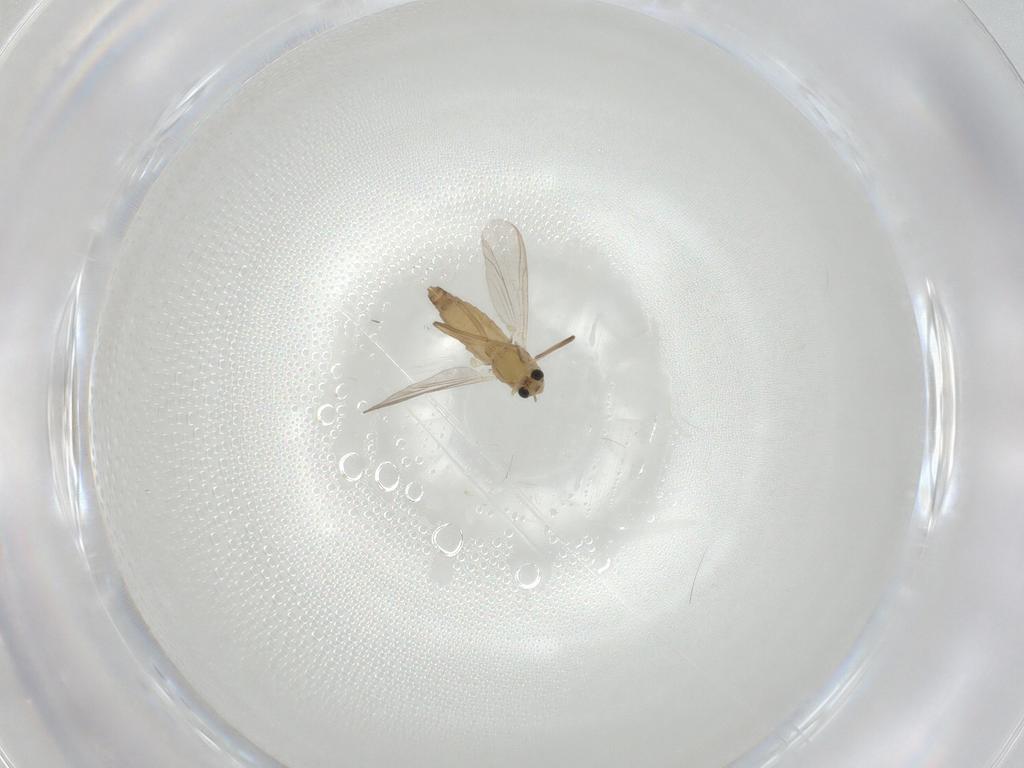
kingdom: Animalia
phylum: Arthropoda
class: Insecta
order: Diptera
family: Chironomidae
